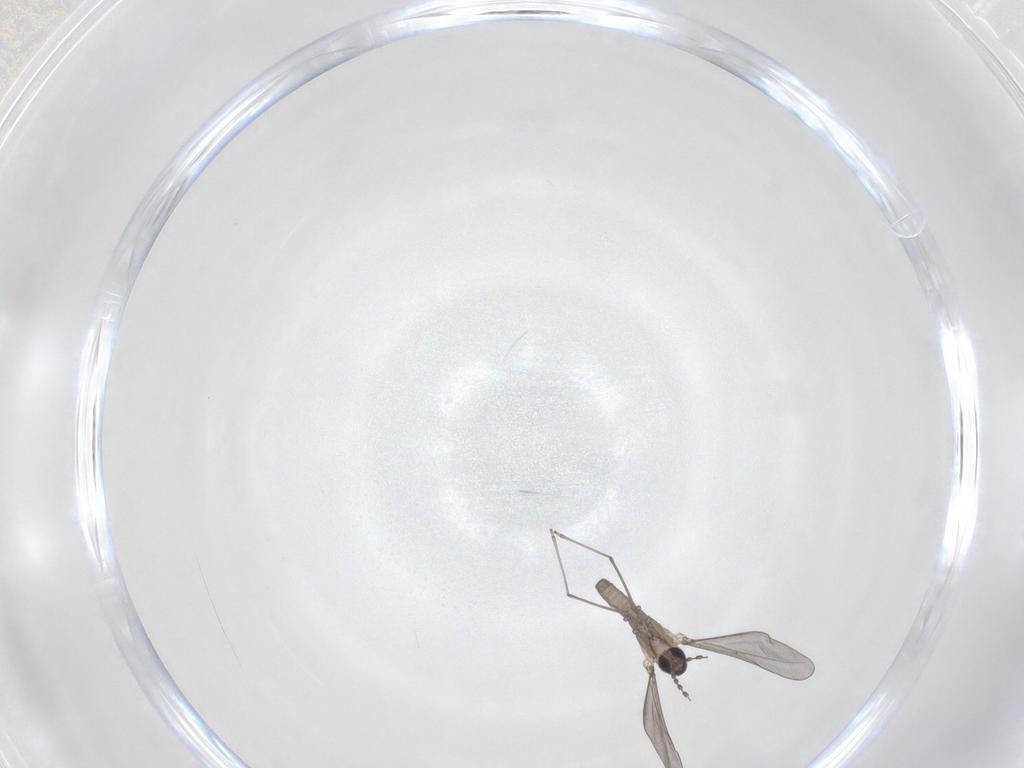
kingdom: Animalia
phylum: Arthropoda
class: Insecta
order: Diptera
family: Cecidomyiidae
